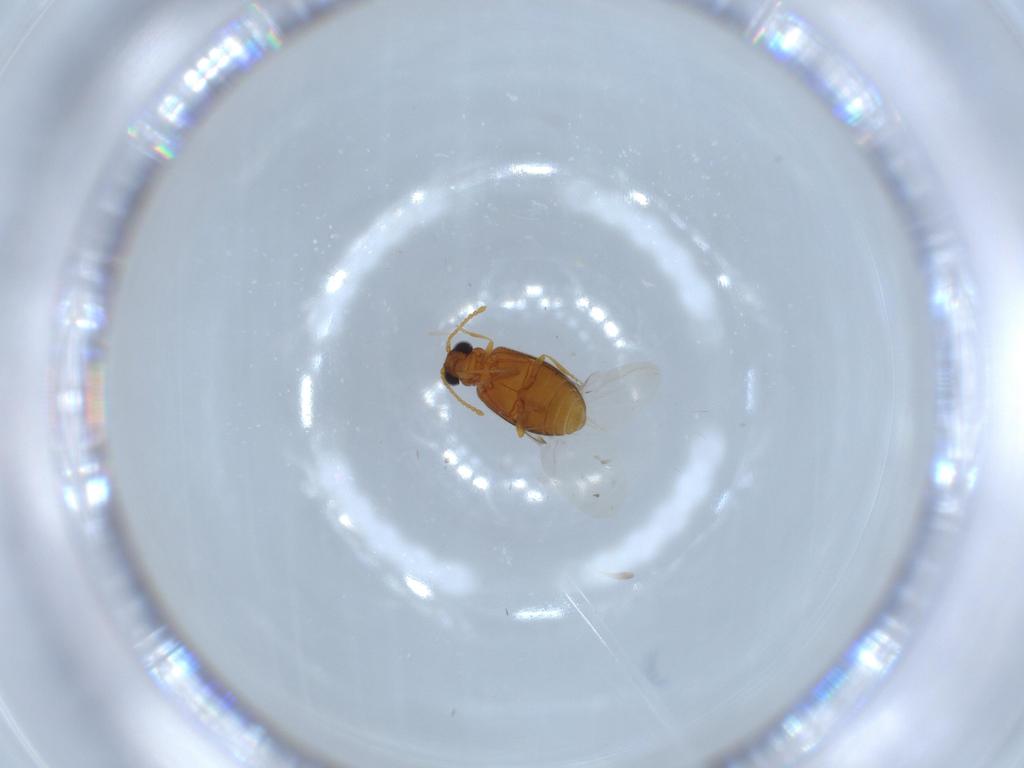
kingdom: Animalia
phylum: Arthropoda
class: Insecta
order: Coleoptera
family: Aderidae
